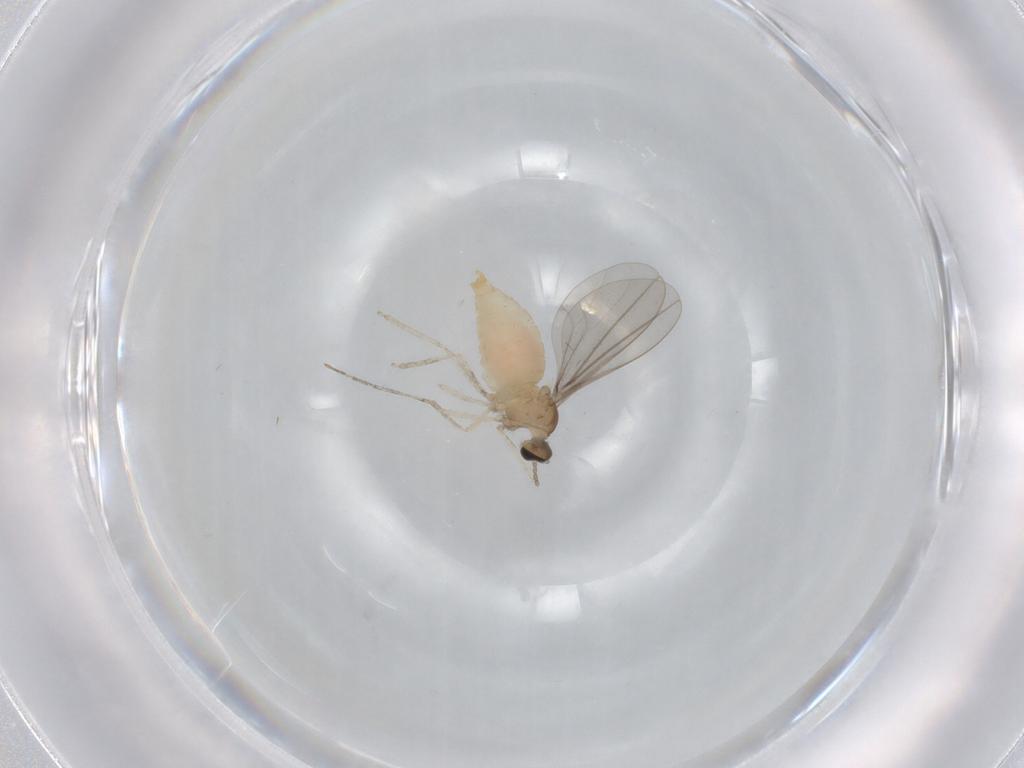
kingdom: Animalia
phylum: Arthropoda
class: Insecta
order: Diptera
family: Cecidomyiidae
